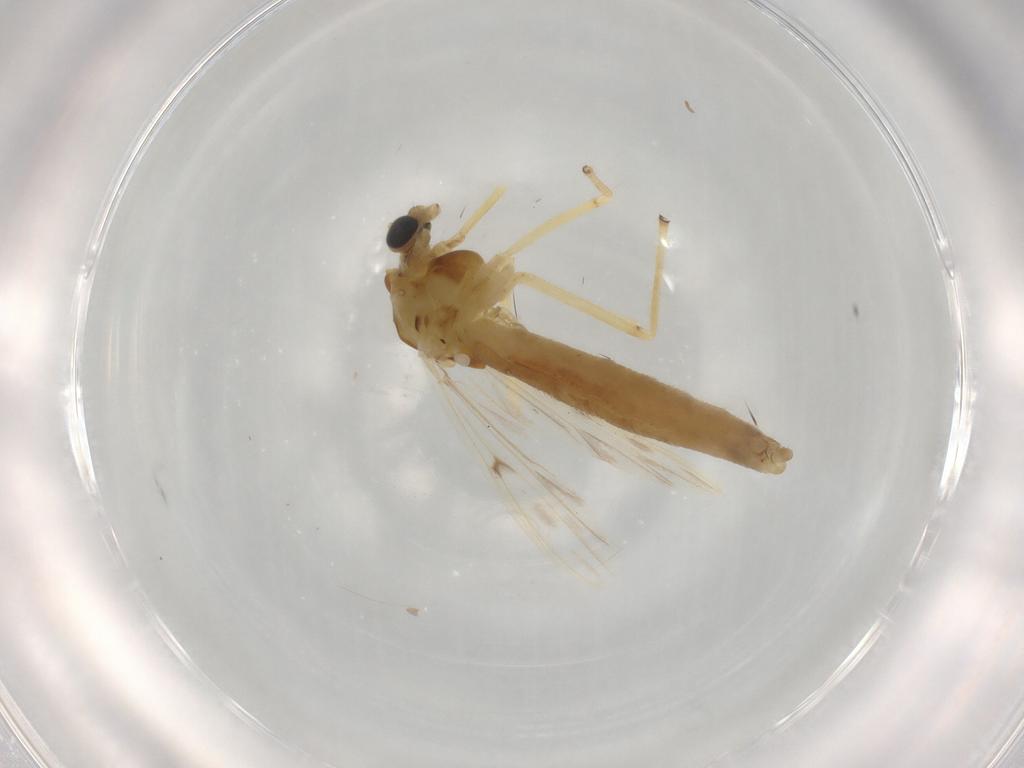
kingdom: Animalia
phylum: Arthropoda
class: Insecta
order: Diptera
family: Chironomidae
